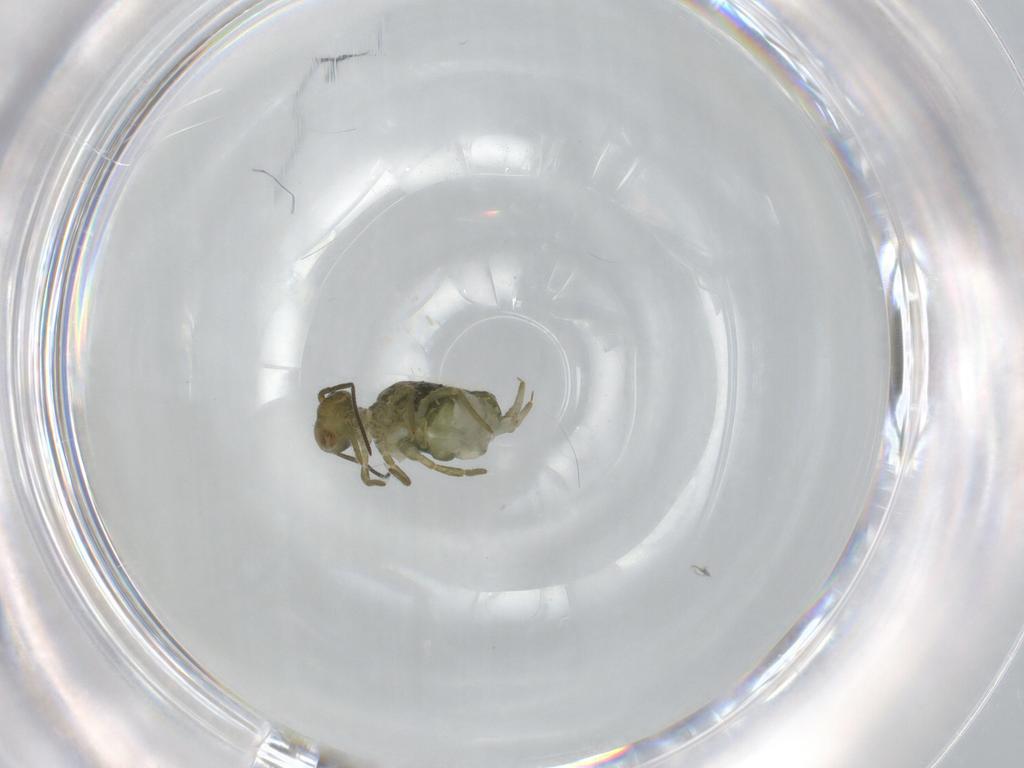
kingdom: Animalia
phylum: Arthropoda
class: Collembola
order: Symphypleona
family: Sminthuridae
